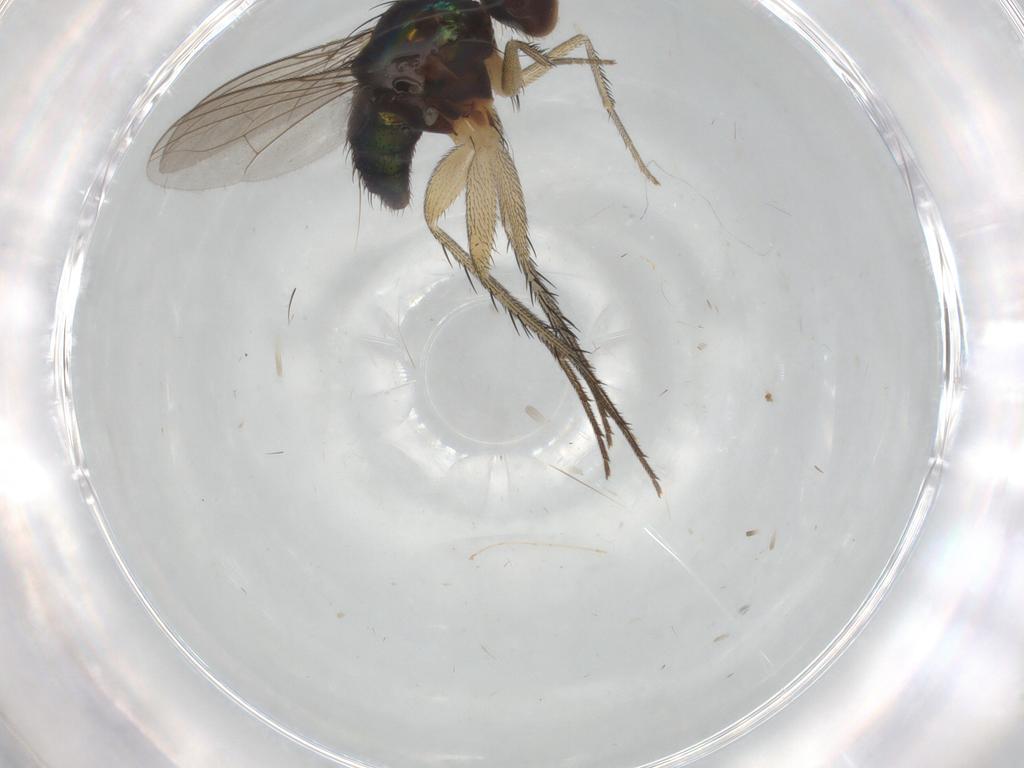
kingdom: Animalia
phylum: Arthropoda
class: Insecta
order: Diptera
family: Dolichopodidae
